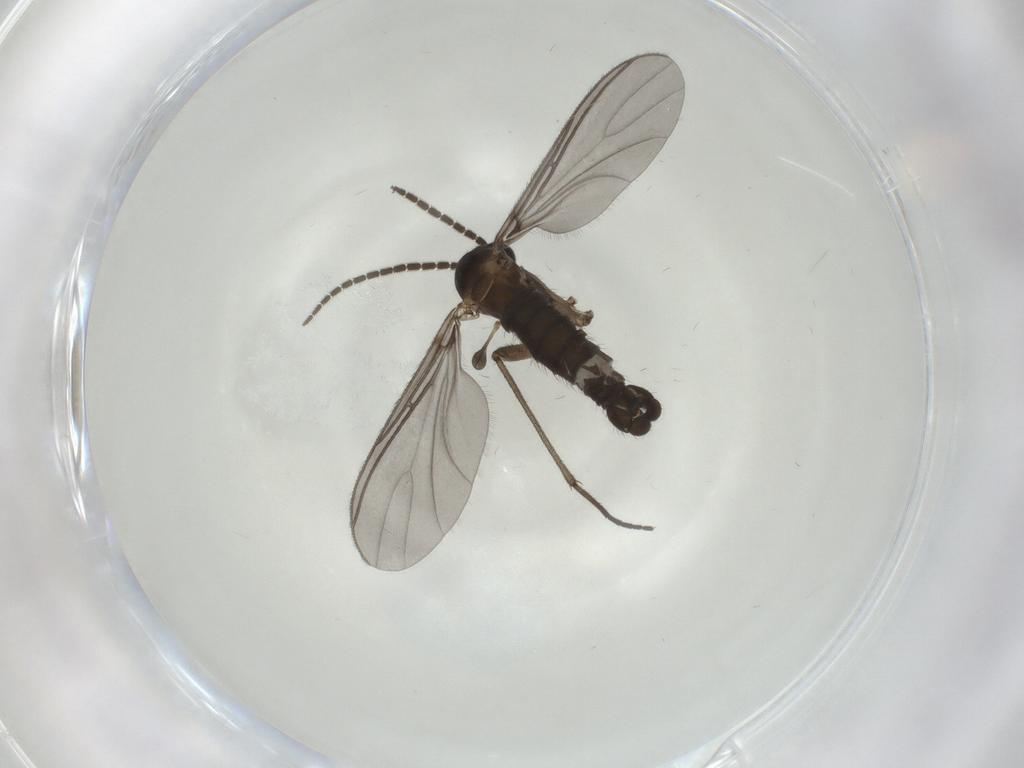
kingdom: Animalia
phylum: Arthropoda
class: Insecta
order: Diptera
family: Sciaridae
